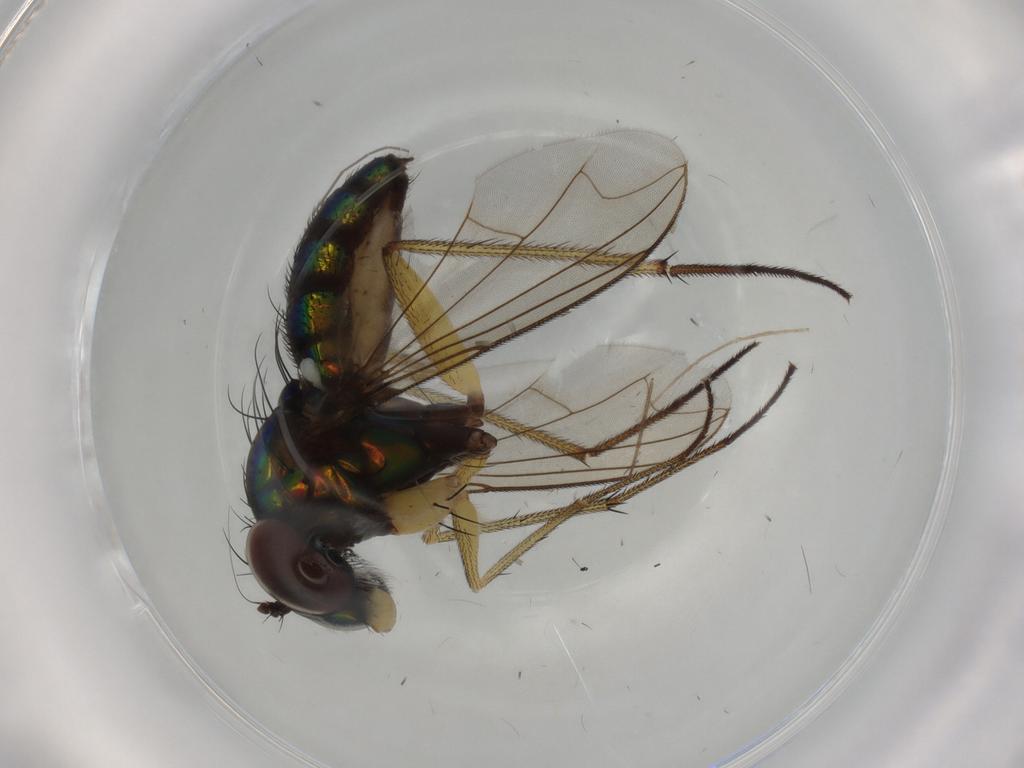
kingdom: Animalia
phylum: Arthropoda
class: Insecta
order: Diptera
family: Dolichopodidae
